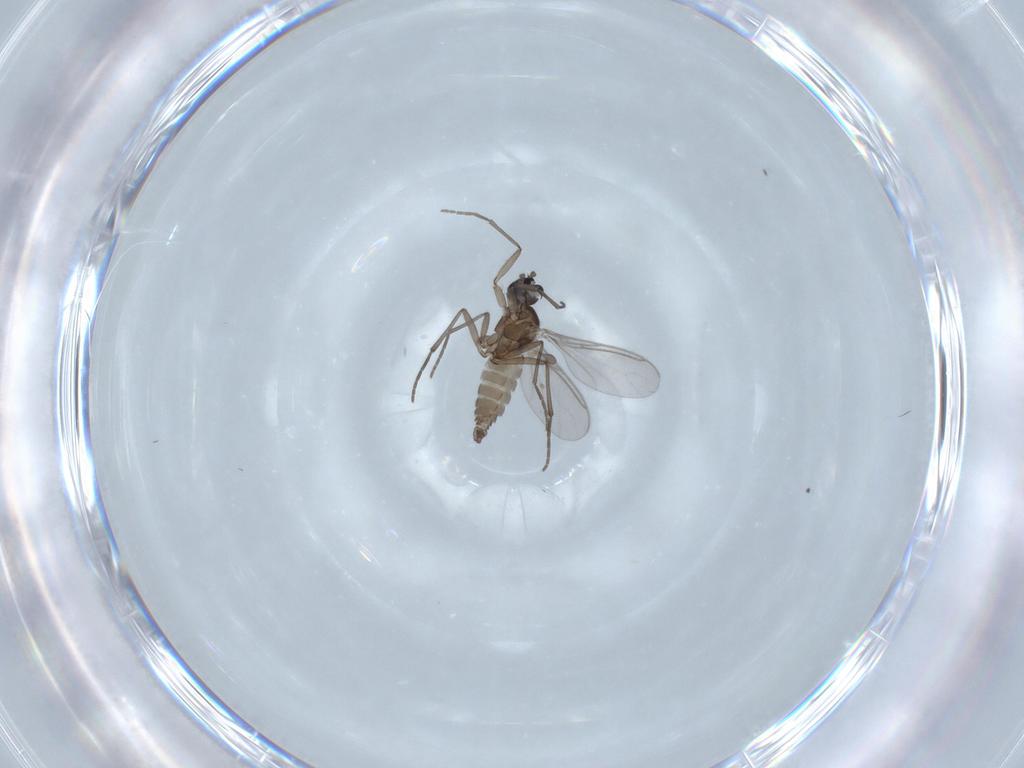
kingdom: Animalia
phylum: Arthropoda
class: Insecta
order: Diptera
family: Sciaridae
